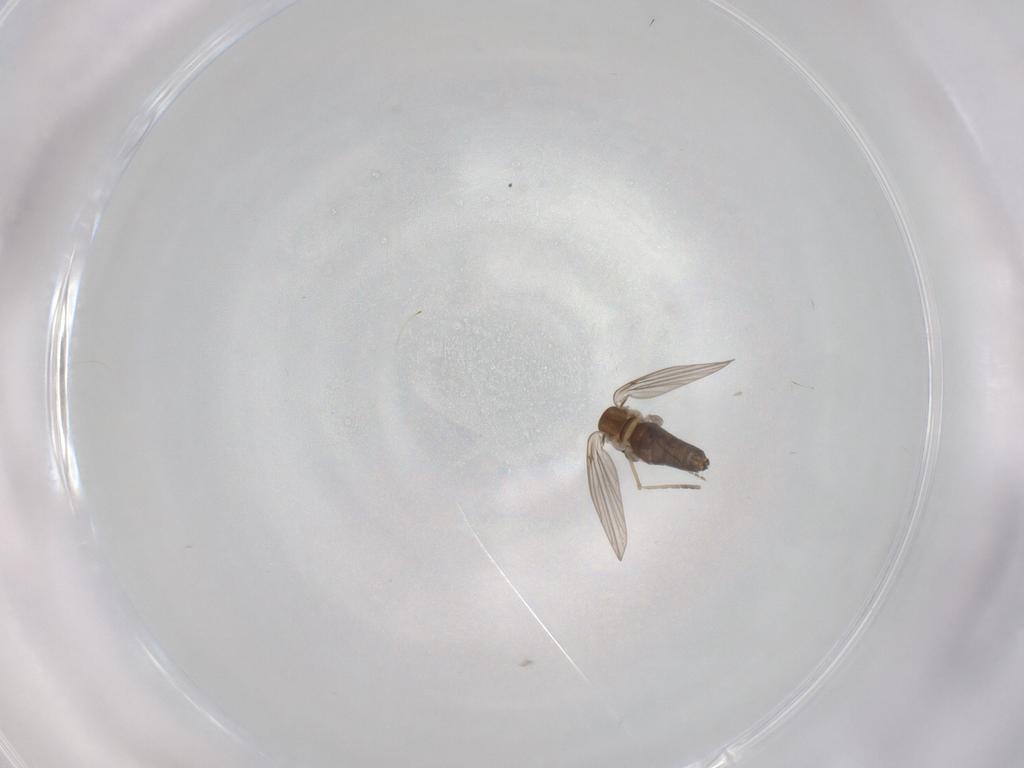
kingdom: Animalia
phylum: Arthropoda
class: Insecta
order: Diptera
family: Cecidomyiidae
